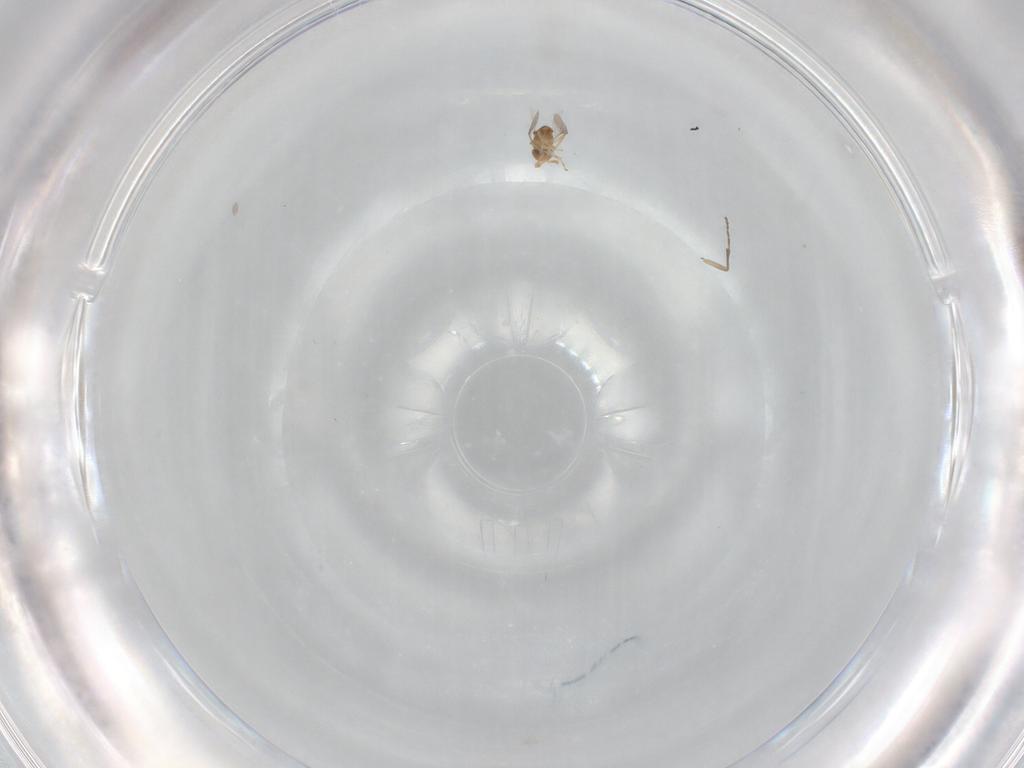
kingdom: Animalia
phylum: Arthropoda
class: Insecta
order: Hymenoptera
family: Encyrtidae
